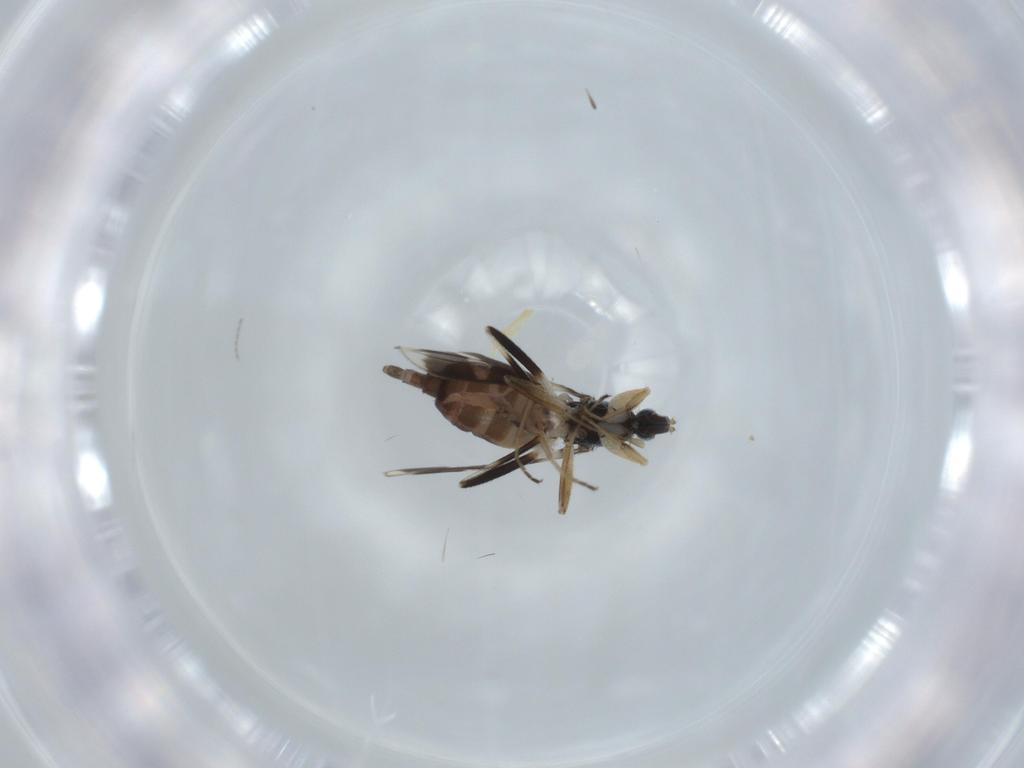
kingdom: Animalia
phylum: Arthropoda
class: Insecta
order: Diptera
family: Hybotidae
